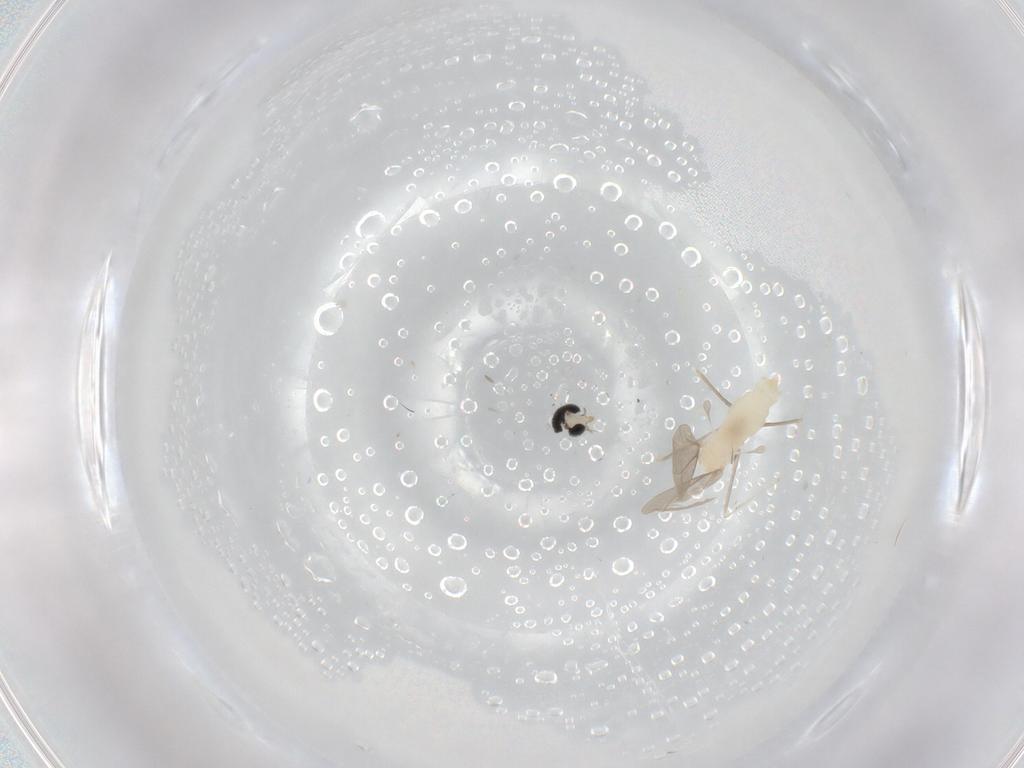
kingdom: Animalia
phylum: Arthropoda
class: Insecta
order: Diptera
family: Cecidomyiidae
